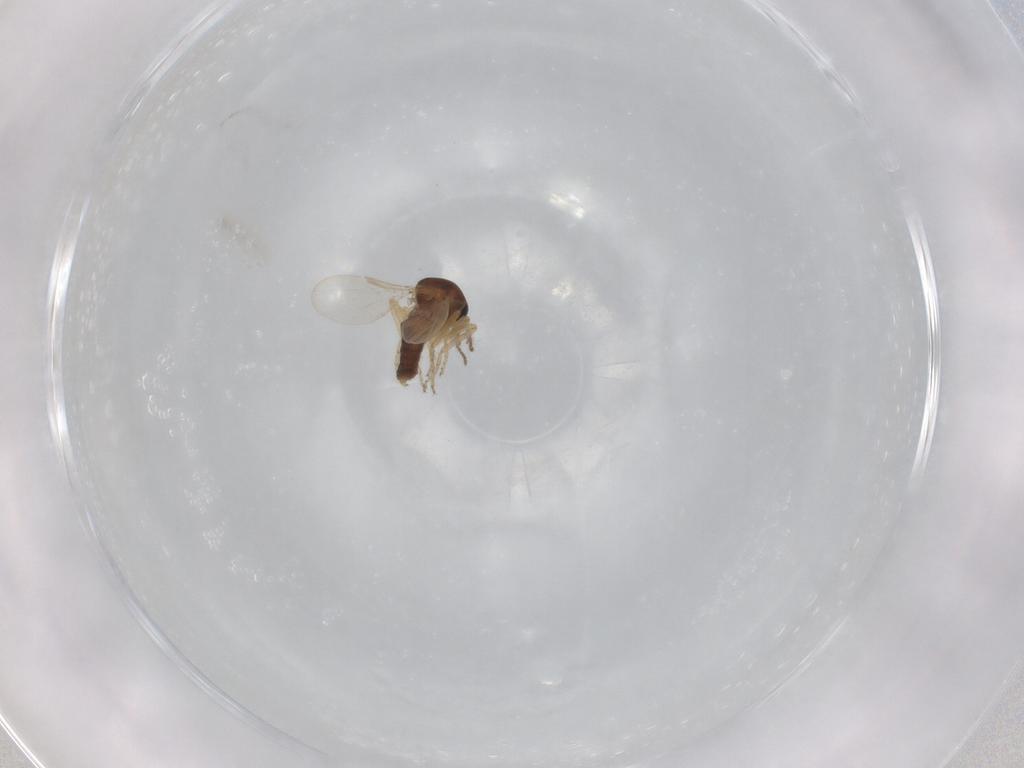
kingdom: Animalia
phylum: Arthropoda
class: Insecta
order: Diptera
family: Ceratopogonidae
